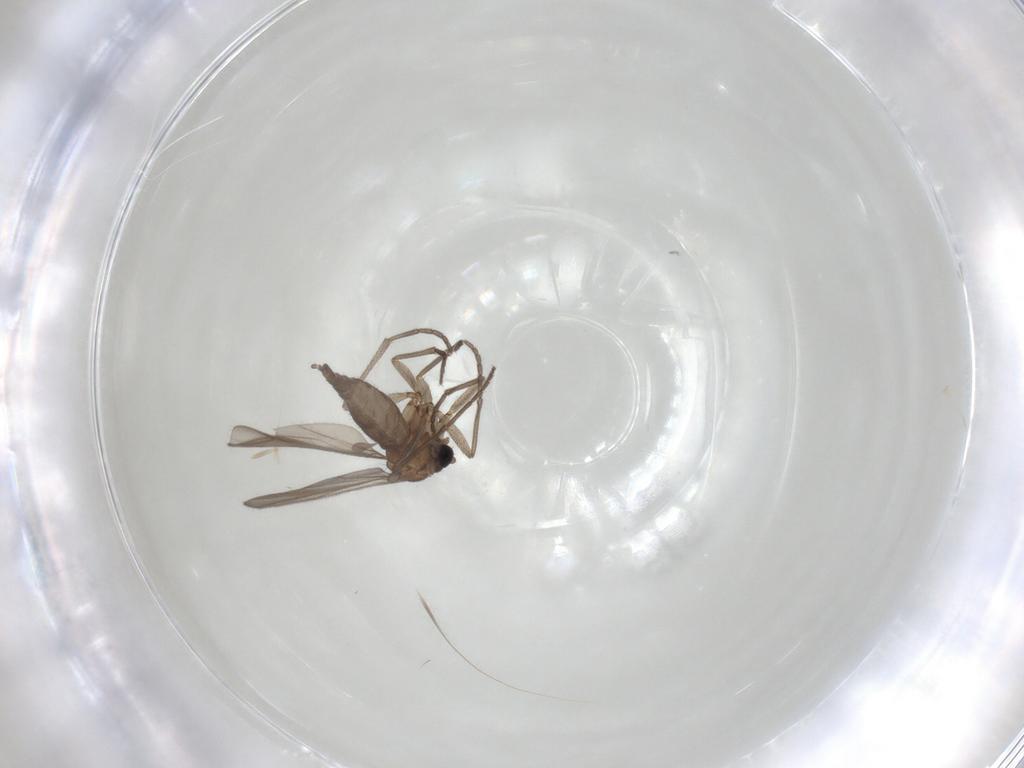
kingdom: Animalia
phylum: Arthropoda
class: Insecta
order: Diptera
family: Sciaridae
